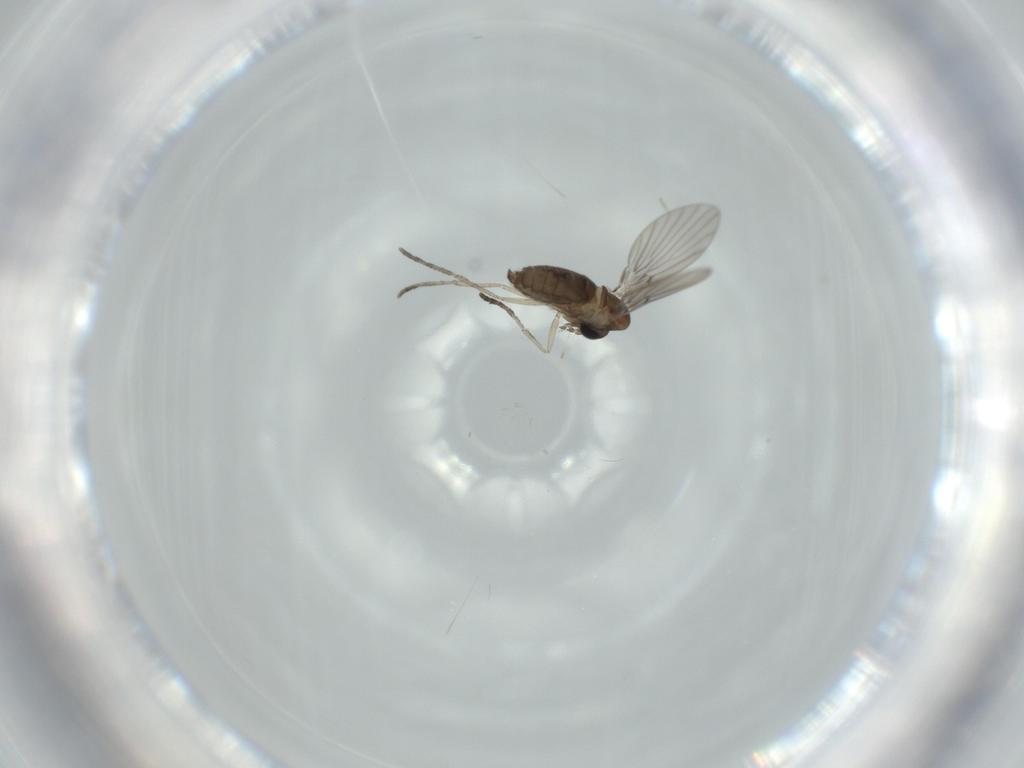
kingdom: Animalia
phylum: Arthropoda
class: Insecta
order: Diptera
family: Psychodidae
